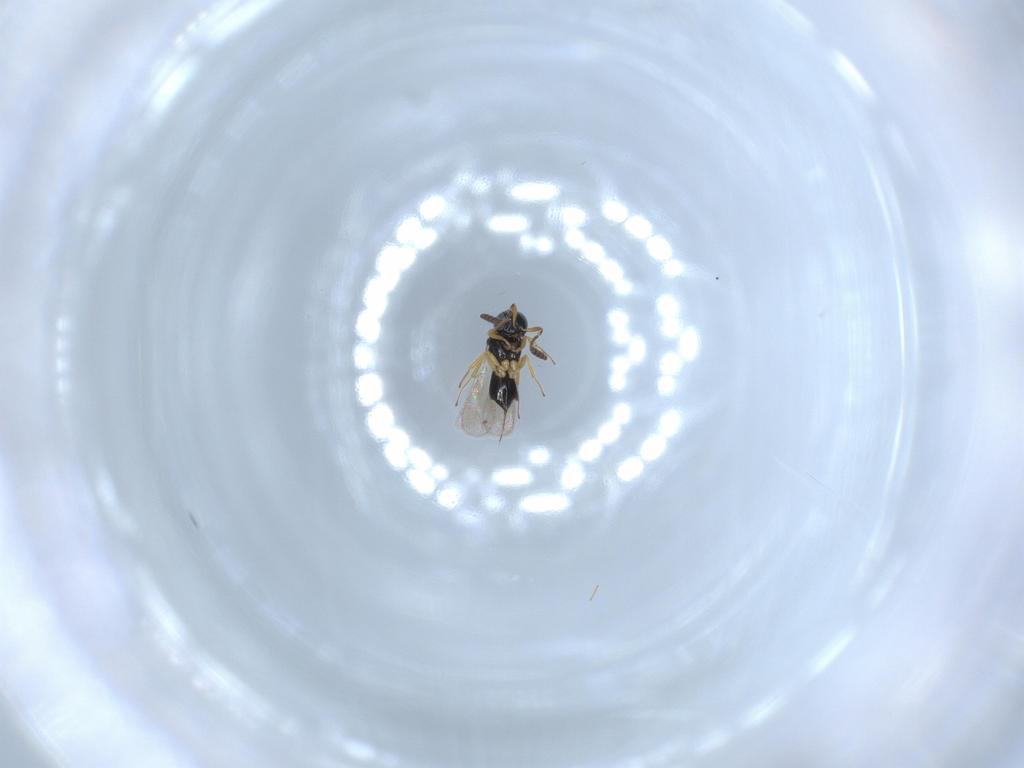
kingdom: Animalia
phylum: Arthropoda
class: Insecta
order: Hymenoptera
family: Scelionidae
